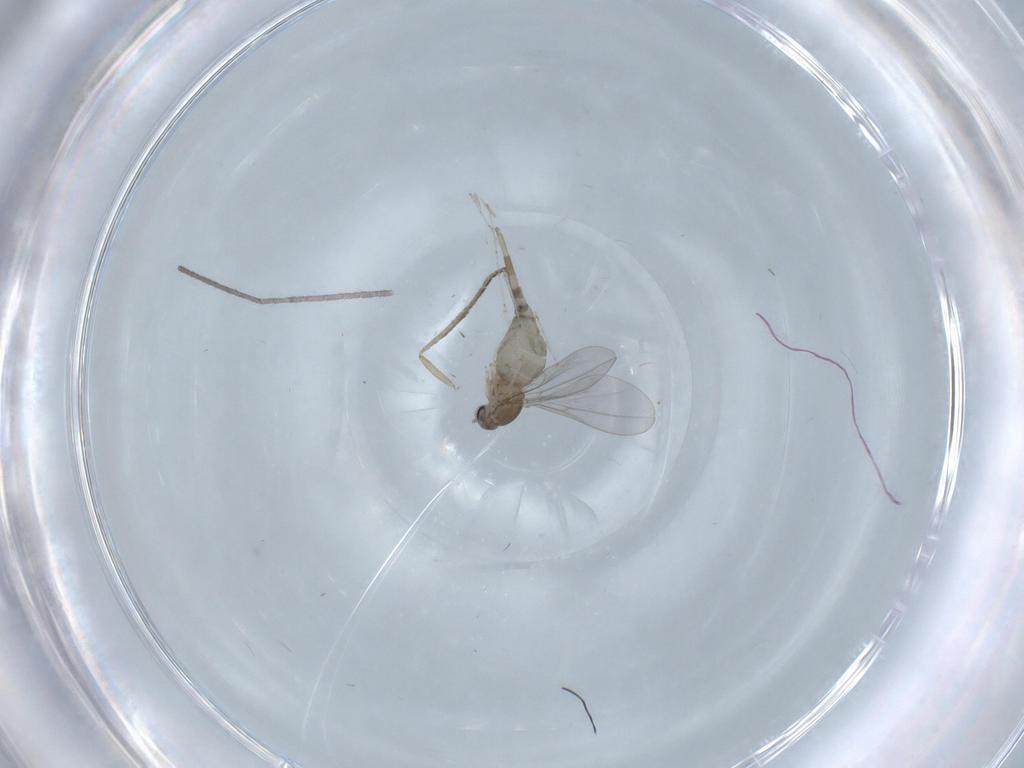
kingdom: Animalia
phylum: Arthropoda
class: Insecta
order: Diptera
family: Cecidomyiidae
